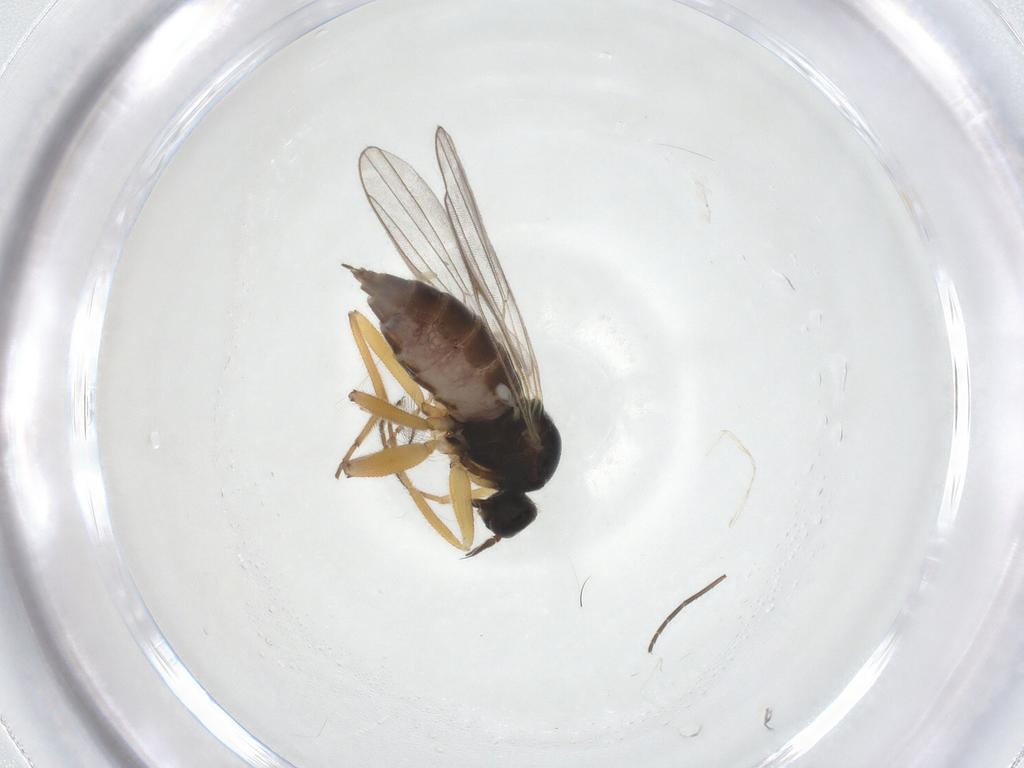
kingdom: Animalia
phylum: Arthropoda
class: Insecta
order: Diptera
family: Hybotidae
